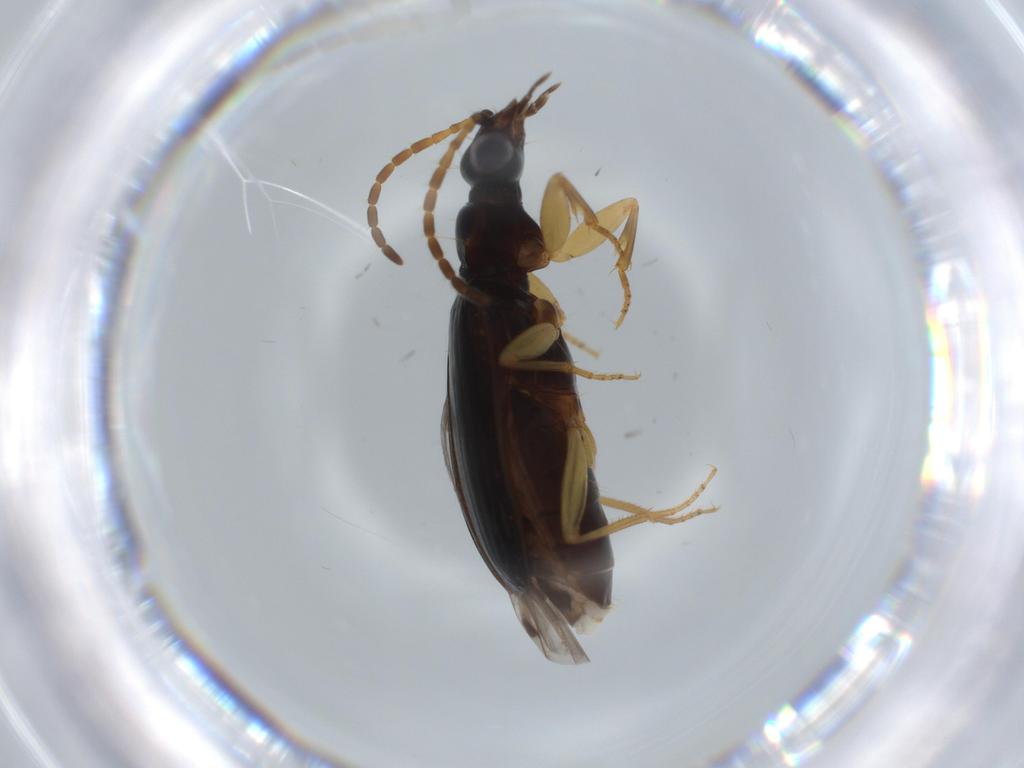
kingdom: Animalia
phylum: Arthropoda
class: Insecta
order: Coleoptera
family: Carabidae
